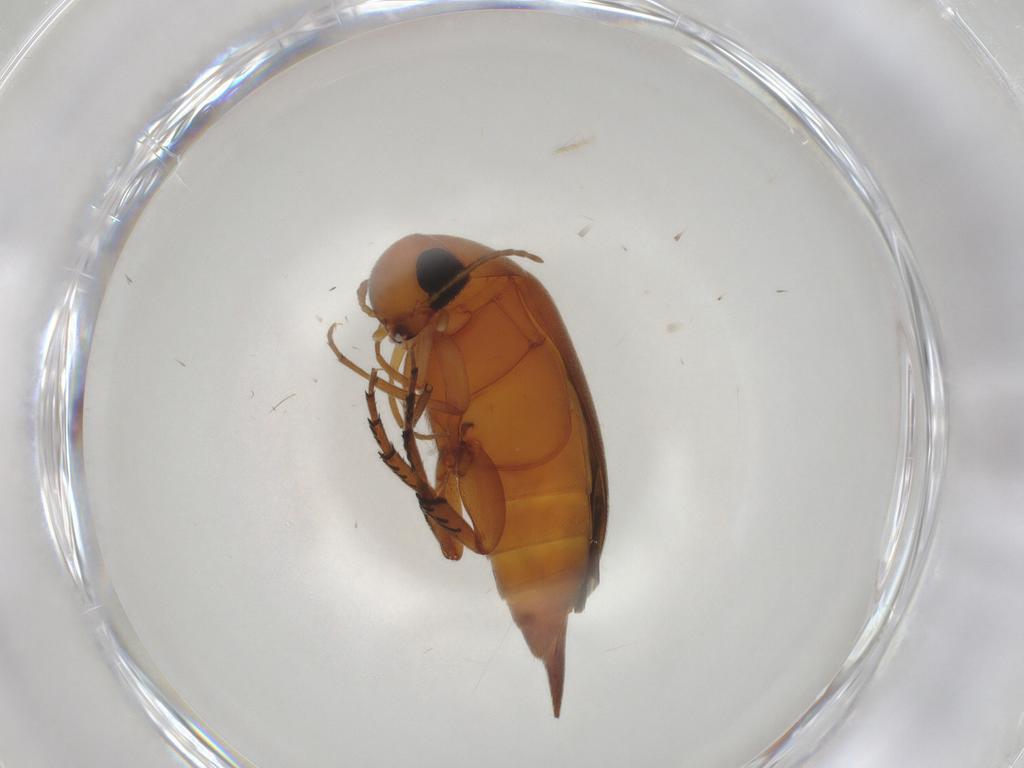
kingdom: Animalia
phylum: Arthropoda
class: Insecta
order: Coleoptera
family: Mordellidae
